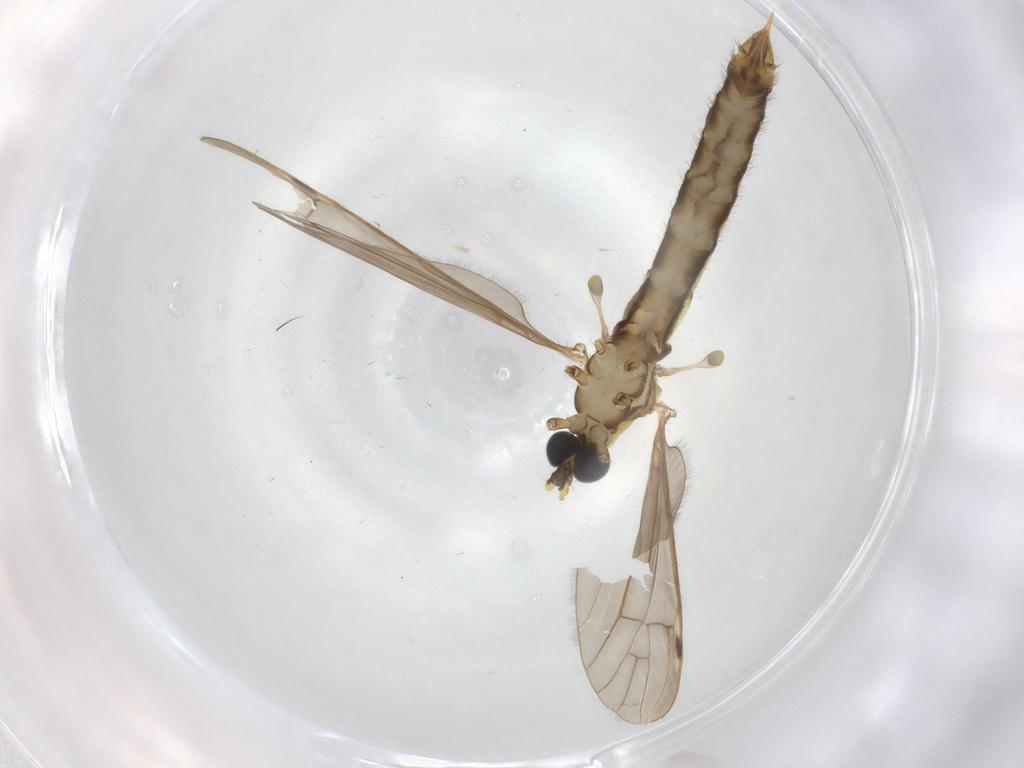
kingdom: Animalia
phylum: Arthropoda
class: Insecta
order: Diptera
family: Limoniidae
